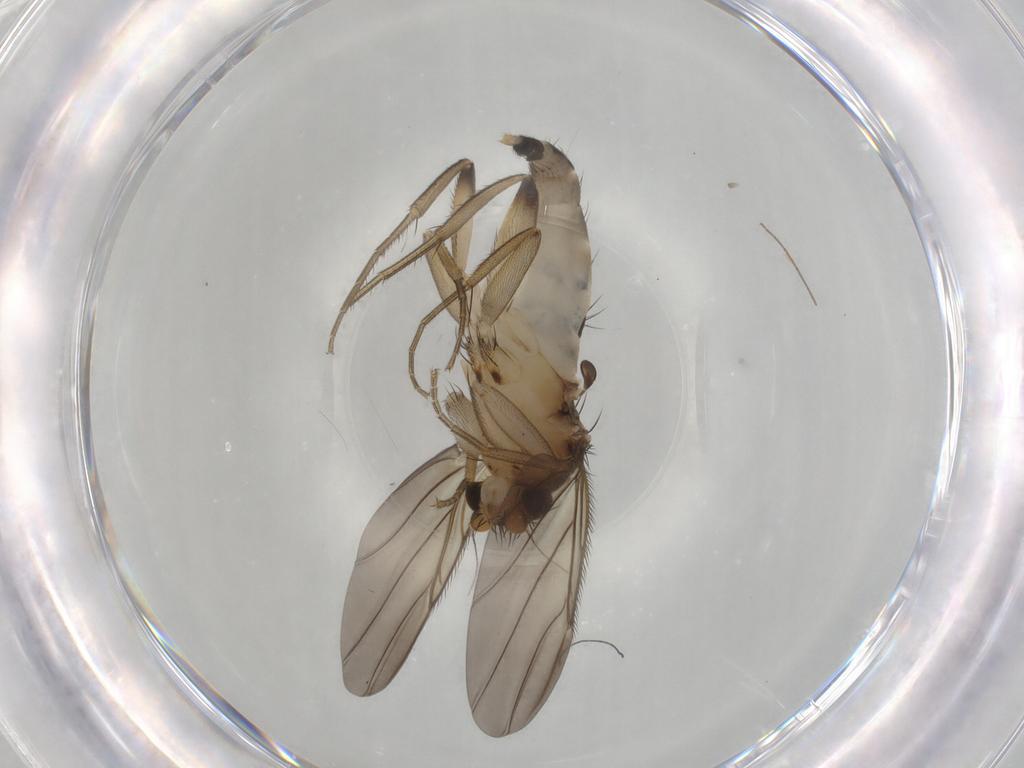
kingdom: Animalia
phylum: Arthropoda
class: Insecta
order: Diptera
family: Phoridae
